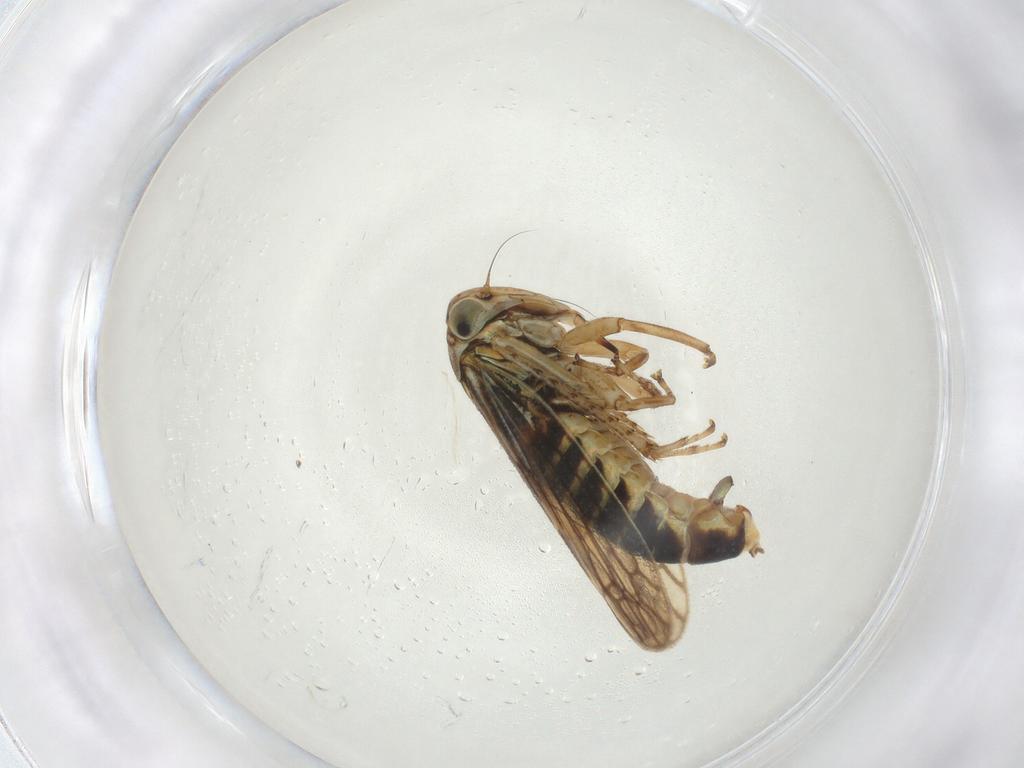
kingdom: Animalia
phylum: Arthropoda
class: Insecta
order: Hemiptera
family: Cicadellidae
